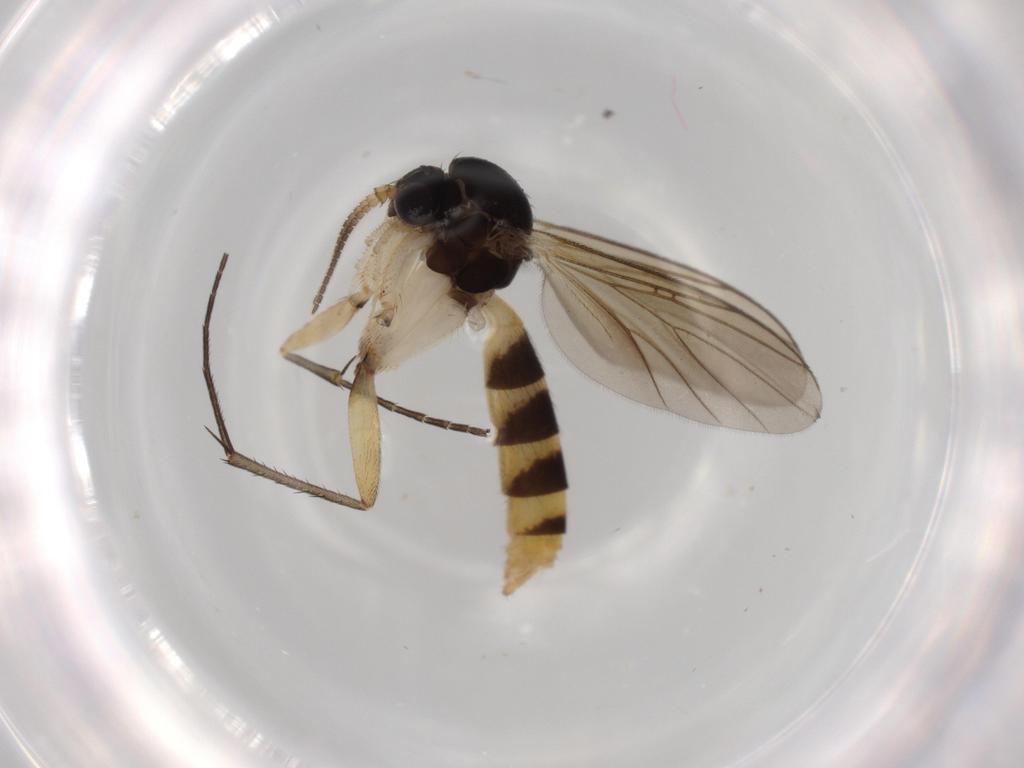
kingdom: Animalia
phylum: Arthropoda
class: Insecta
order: Diptera
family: Mycetophilidae
